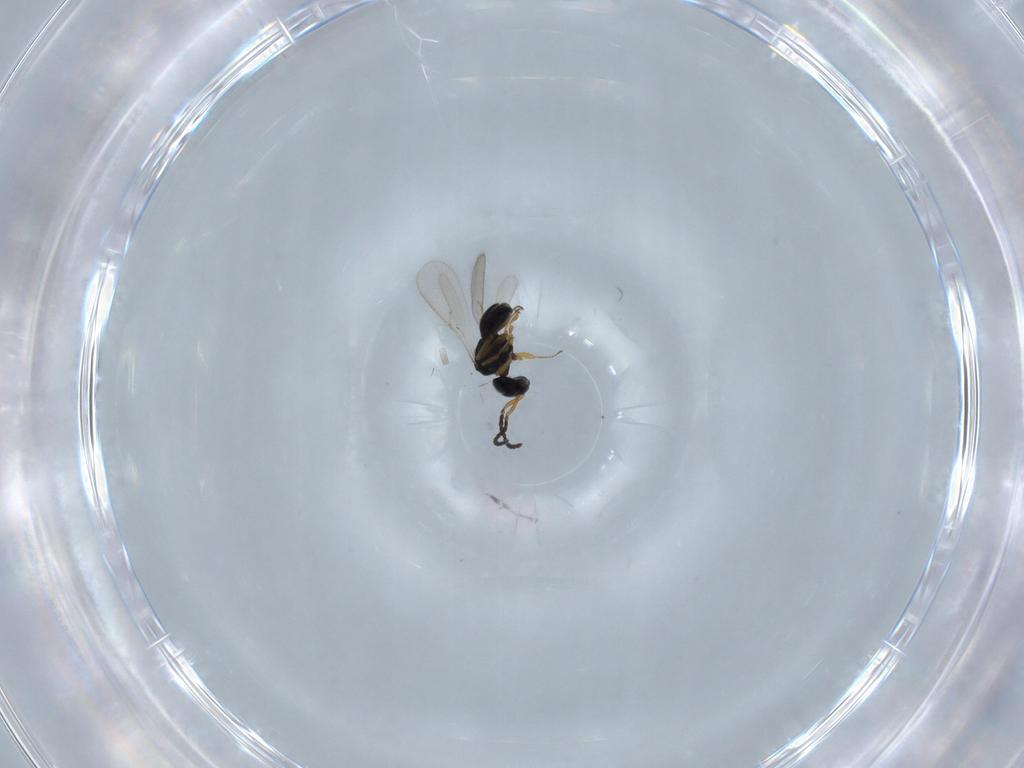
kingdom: Animalia
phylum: Arthropoda
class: Insecta
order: Hymenoptera
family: Scelionidae
